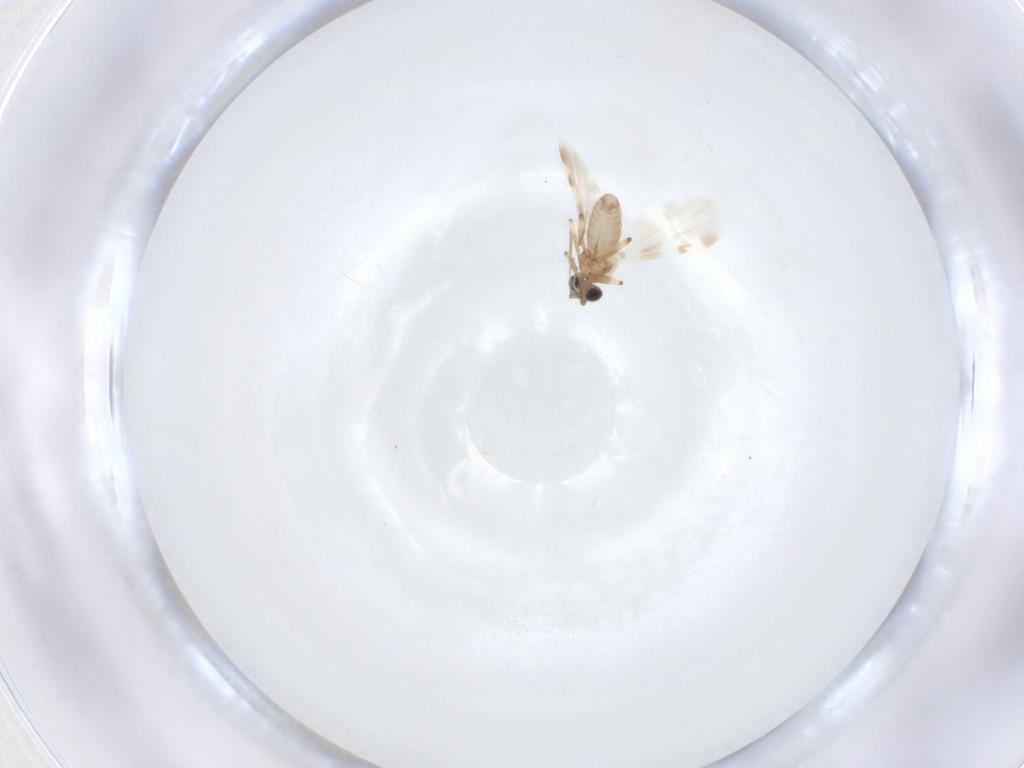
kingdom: Animalia
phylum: Arthropoda
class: Insecta
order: Diptera
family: Ceratopogonidae
